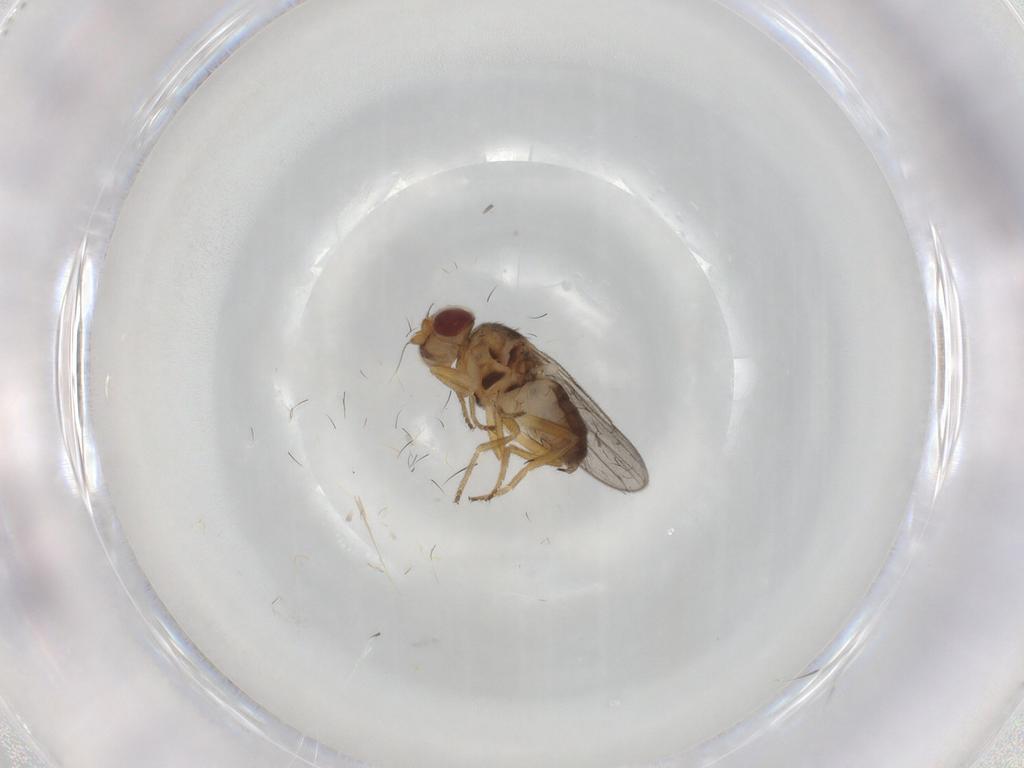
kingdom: Animalia
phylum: Arthropoda
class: Insecta
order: Diptera
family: Chloropidae
